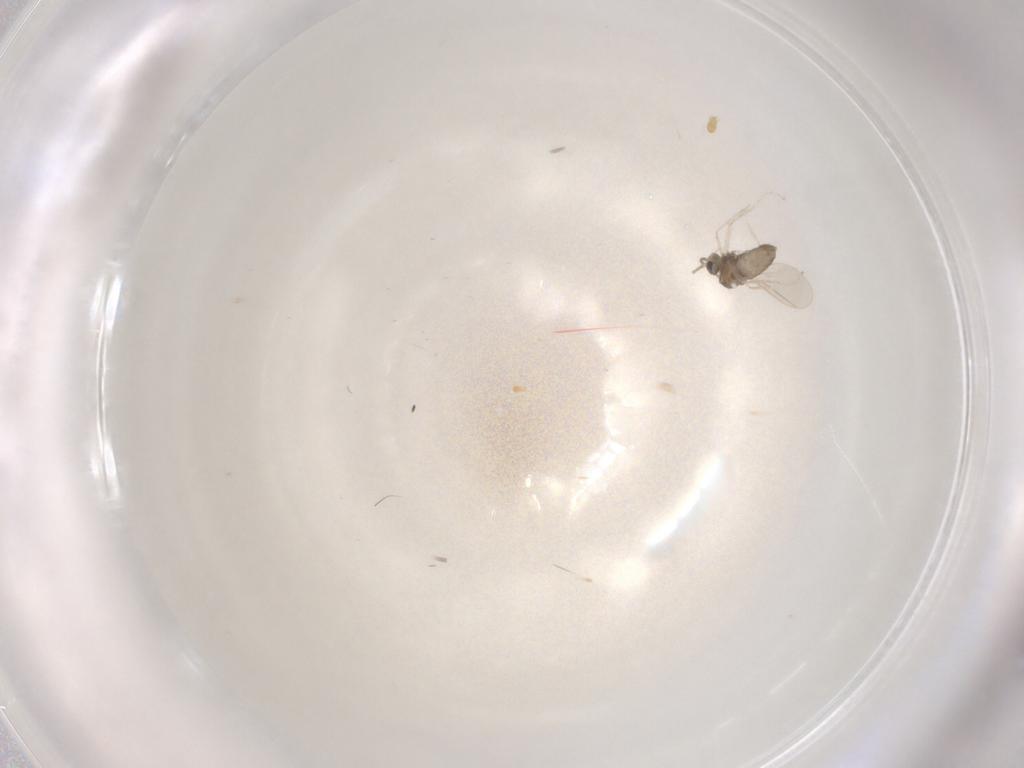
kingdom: Animalia
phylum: Arthropoda
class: Insecta
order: Diptera
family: Cecidomyiidae
